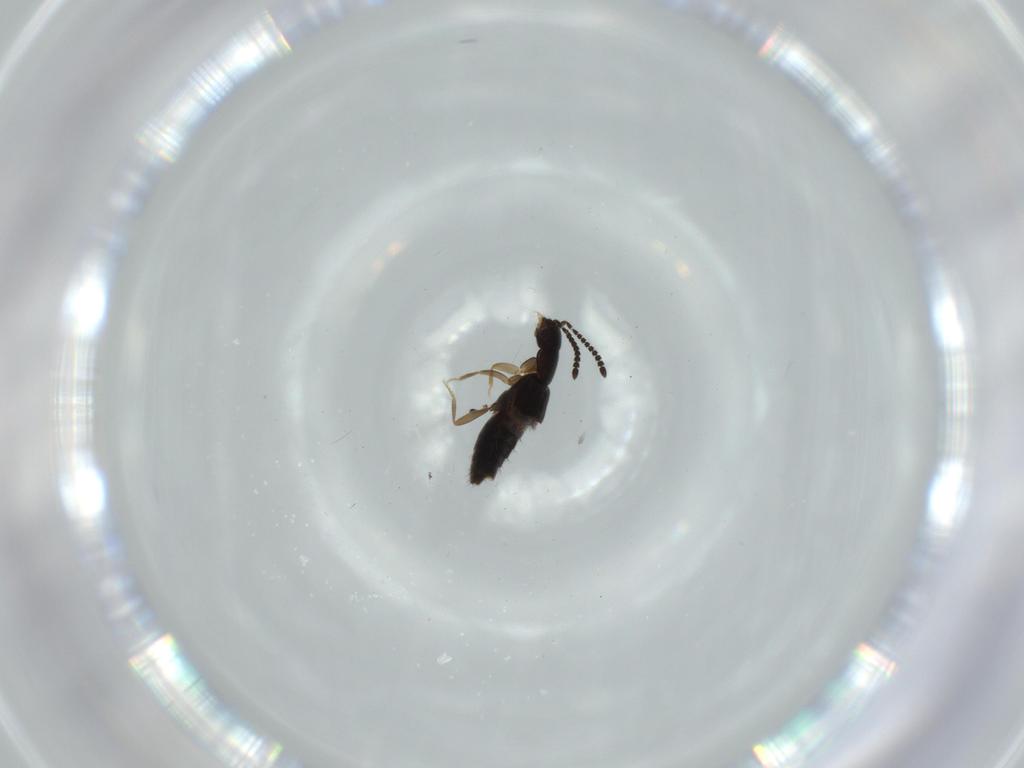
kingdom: Animalia
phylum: Arthropoda
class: Insecta
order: Coleoptera
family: Staphylinidae
